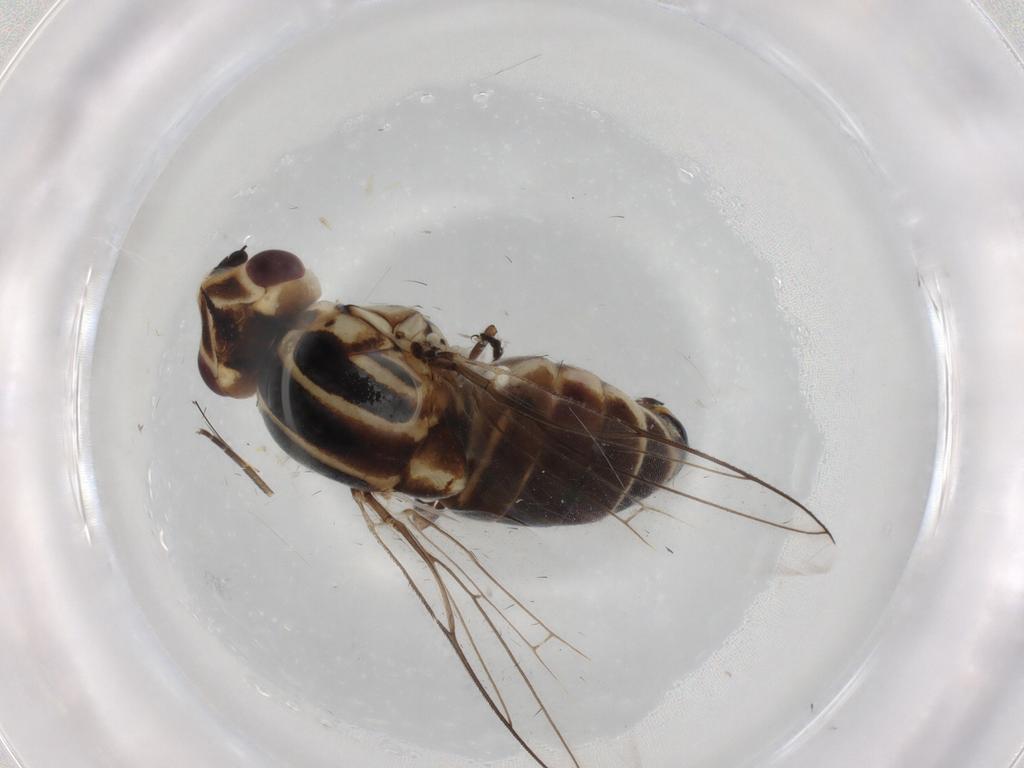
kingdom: Animalia
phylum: Arthropoda
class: Insecta
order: Diptera
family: Chloropidae
